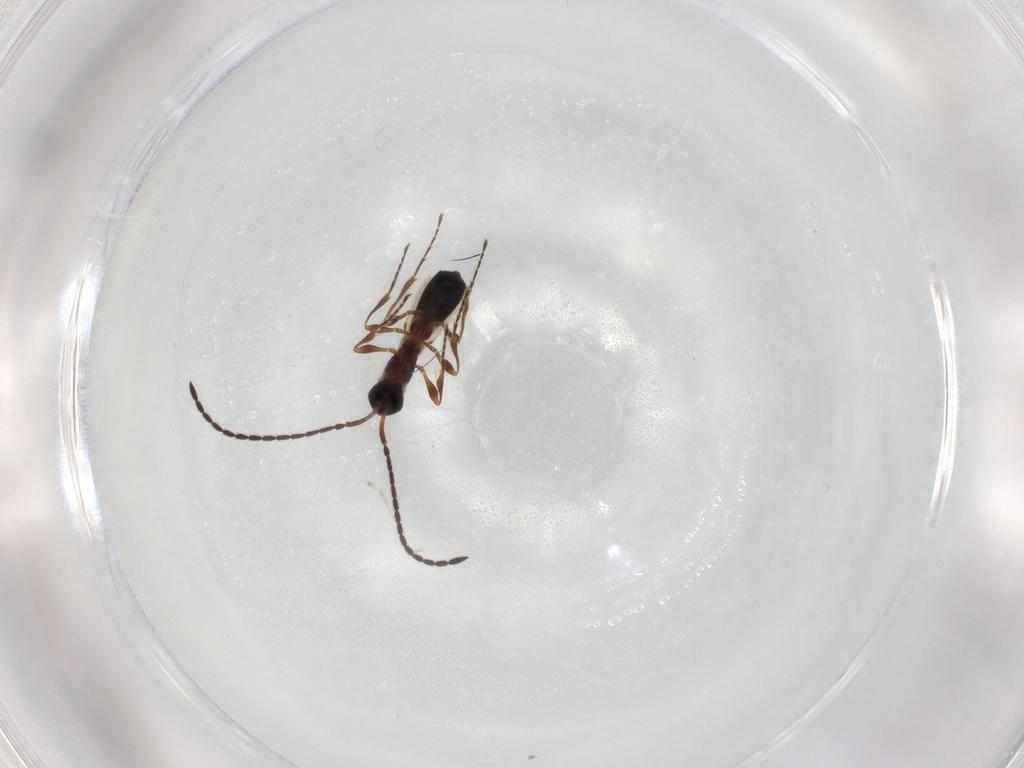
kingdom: Animalia
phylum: Arthropoda
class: Insecta
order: Hymenoptera
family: Diapriidae
